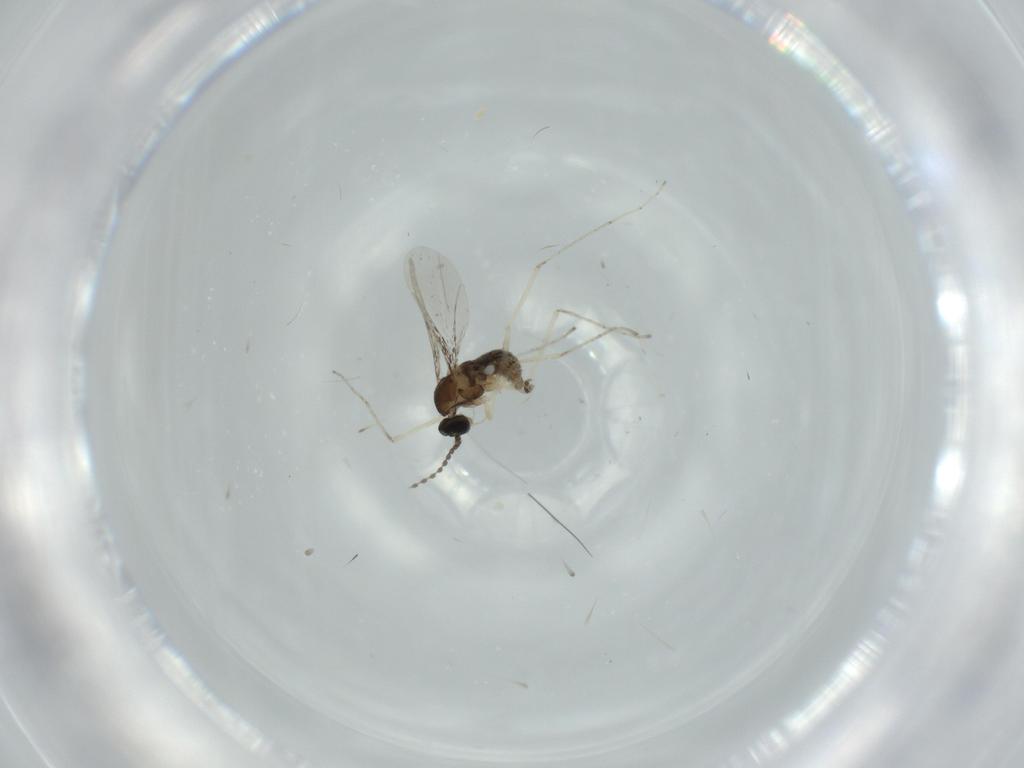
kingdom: Animalia
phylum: Arthropoda
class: Insecta
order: Diptera
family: Cecidomyiidae
